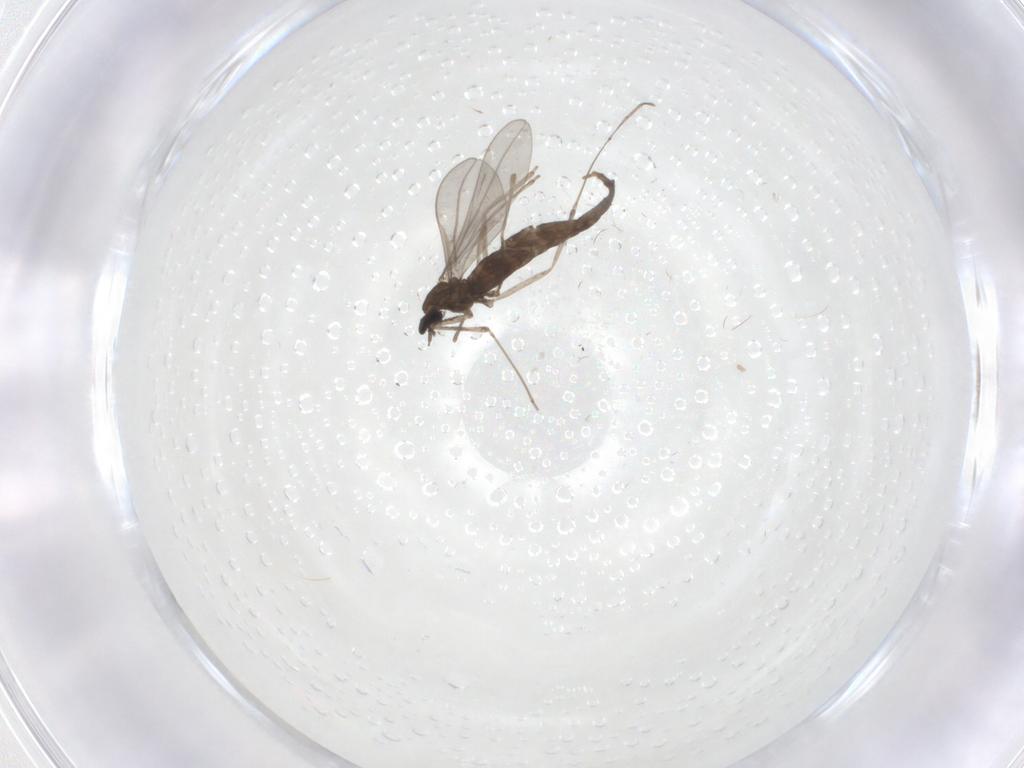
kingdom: Animalia
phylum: Arthropoda
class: Insecta
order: Diptera
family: Cecidomyiidae
